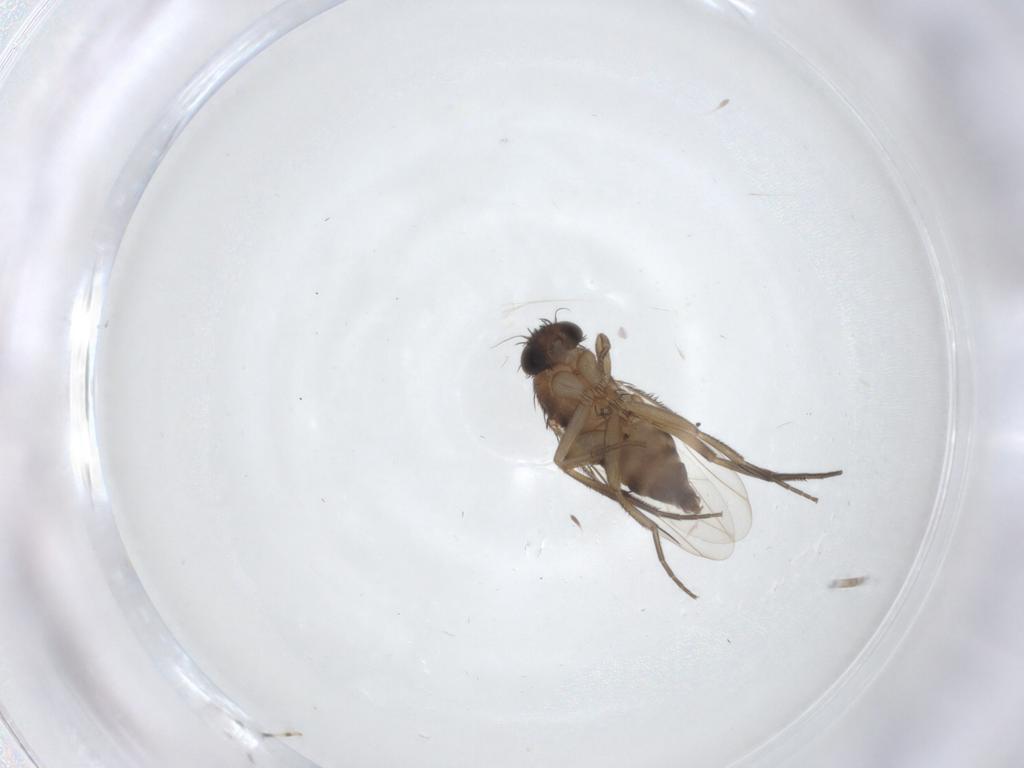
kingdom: Animalia
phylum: Arthropoda
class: Insecta
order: Diptera
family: Phoridae
